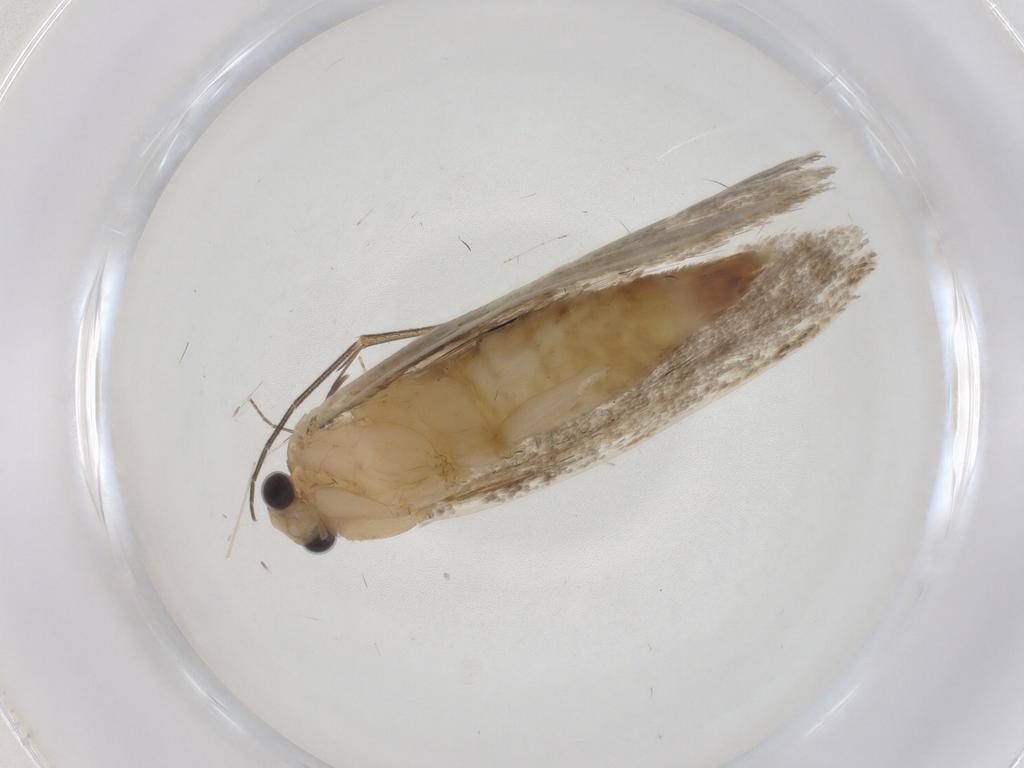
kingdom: Animalia
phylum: Arthropoda
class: Insecta
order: Lepidoptera
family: Tineidae
